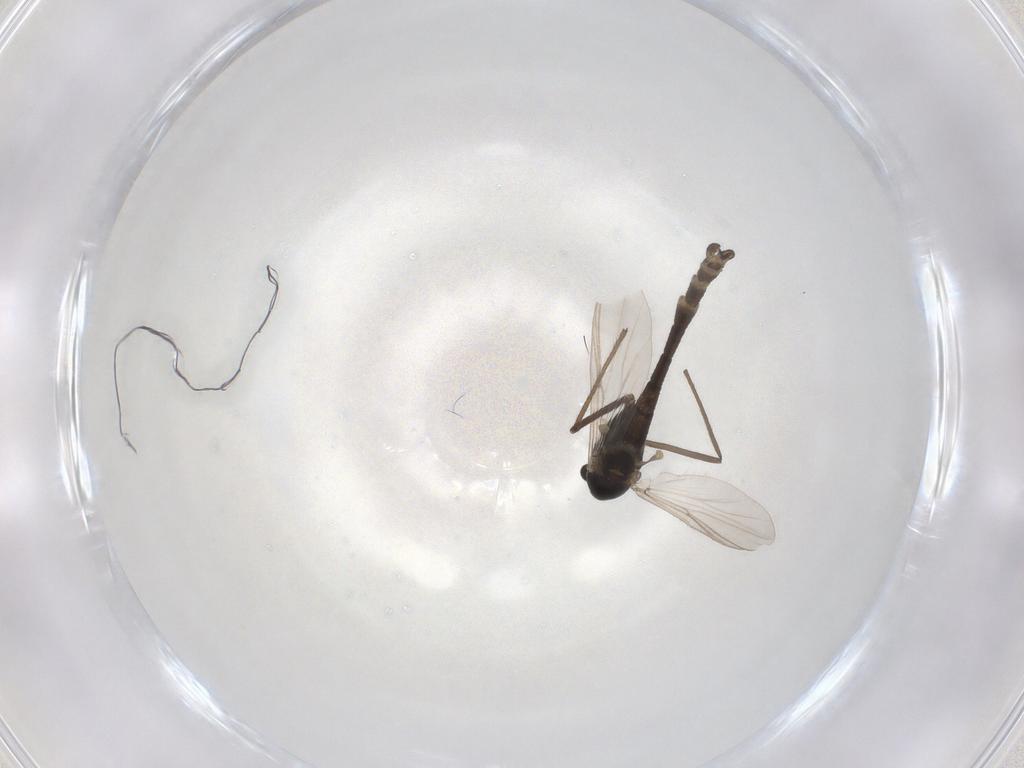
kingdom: Animalia
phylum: Arthropoda
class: Insecta
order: Diptera
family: Chironomidae
